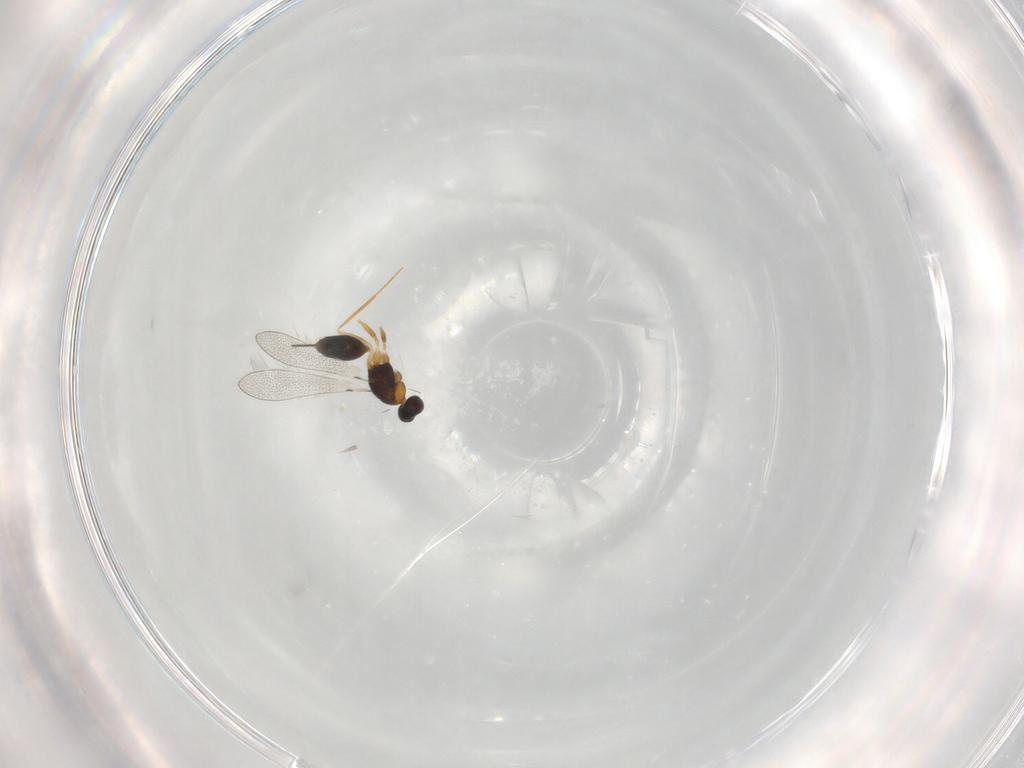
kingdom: Animalia
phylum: Arthropoda
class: Insecta
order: Hymenoptera
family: Mymaridae
